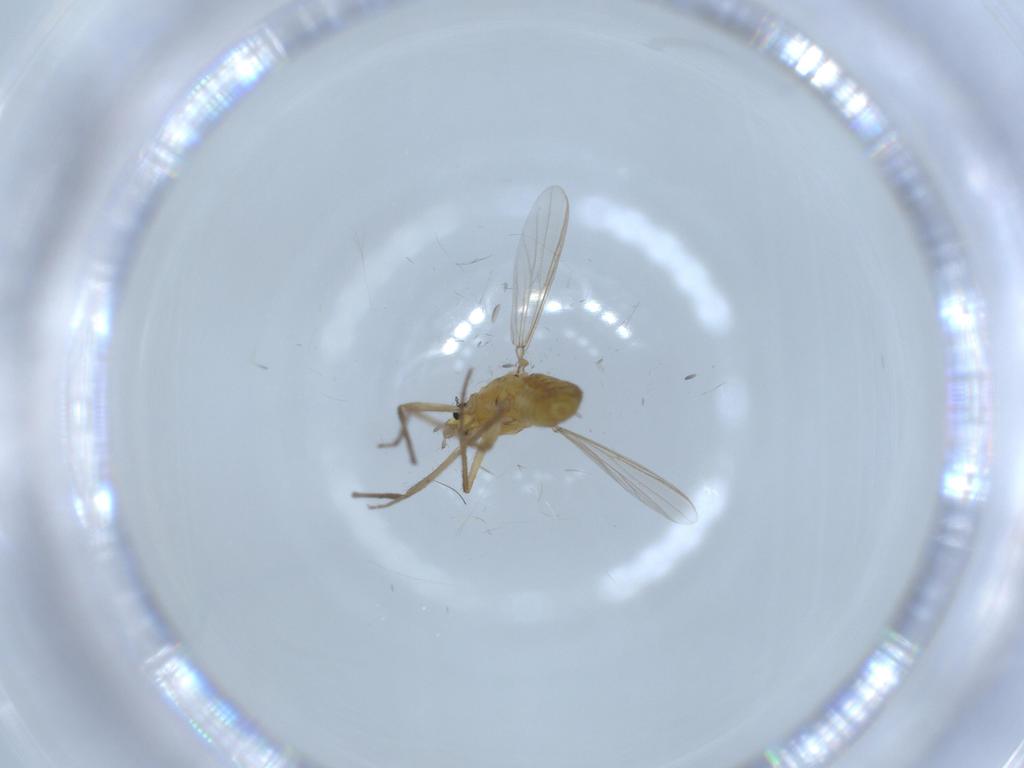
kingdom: Animalia
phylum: Arthropoda
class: Insecta
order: Diptera
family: Chironomidae
